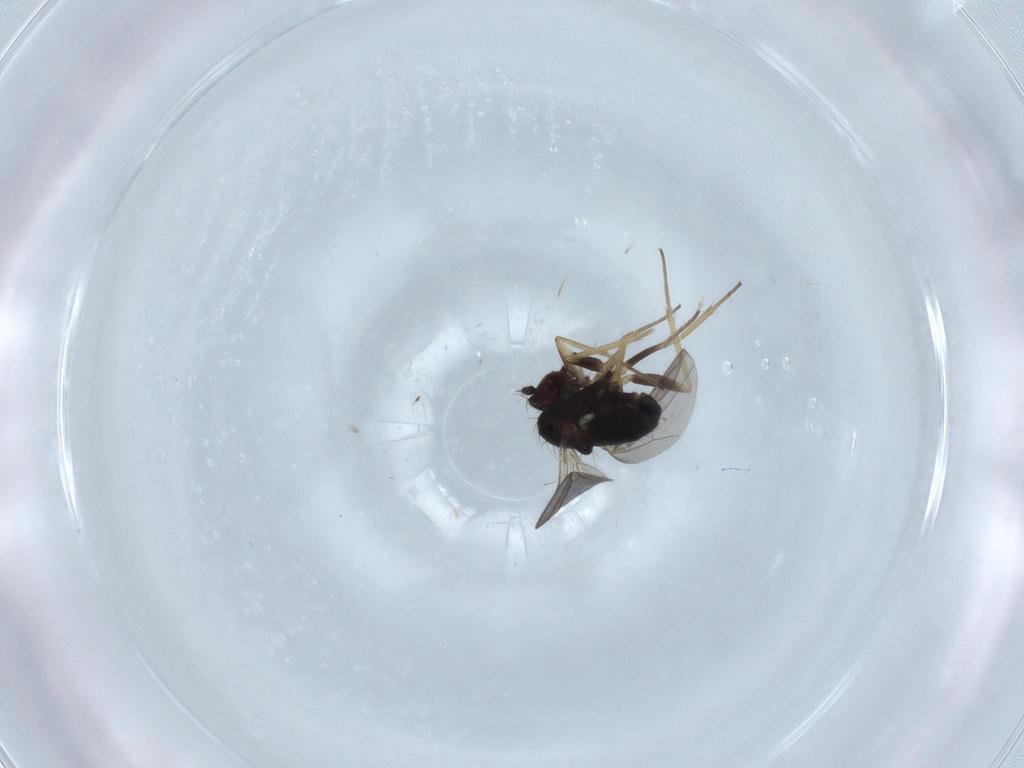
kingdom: Animalia
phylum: Arthropoda
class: Insecta
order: Diptera
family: Dolichopodidae
